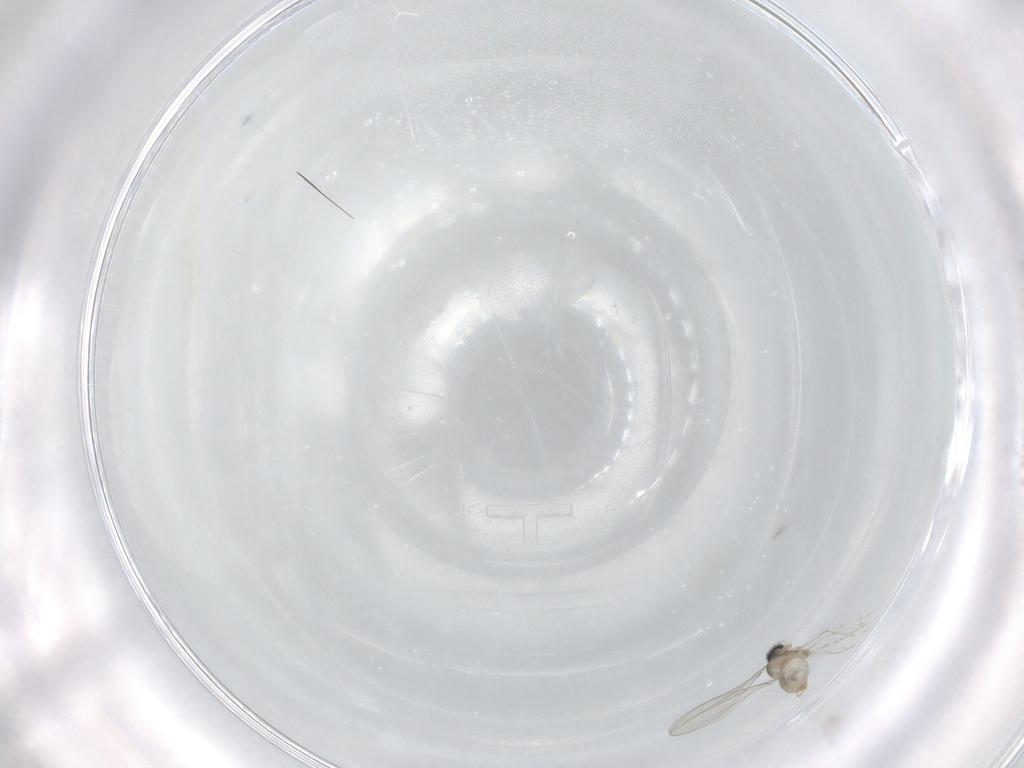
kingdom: Animalia
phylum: Arthropoda
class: Insecta
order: Diptera
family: Cecidomyiidae
